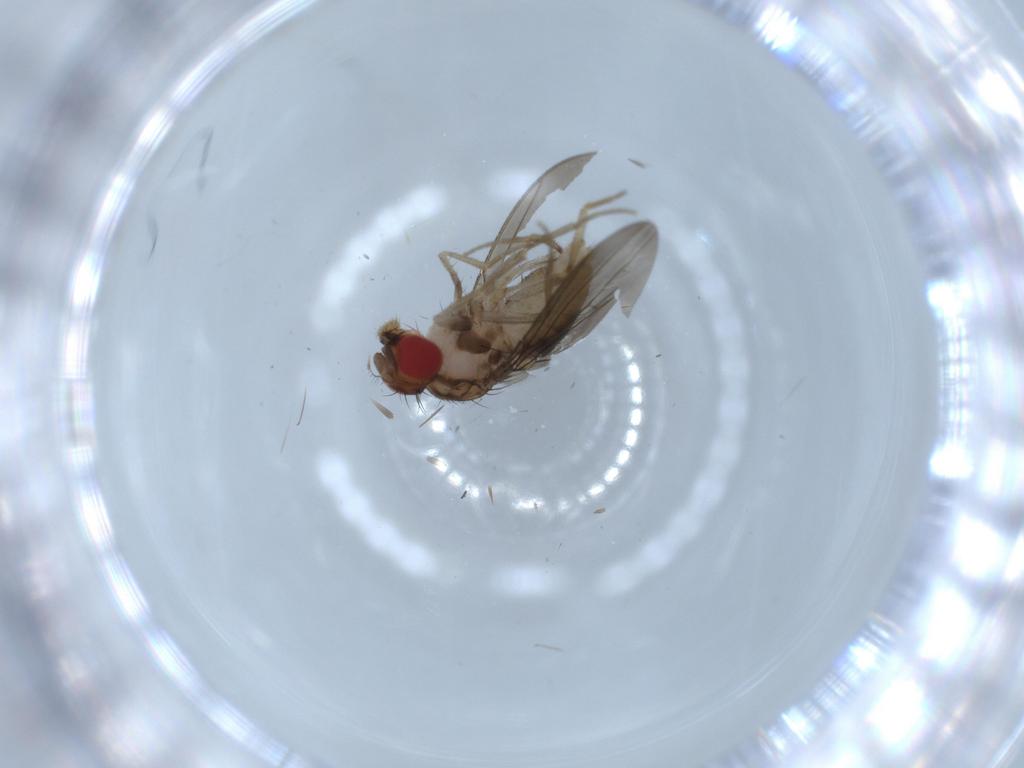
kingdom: Animalia
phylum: Arthropoda
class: Insecta
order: Diptera
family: Drosophilidae
